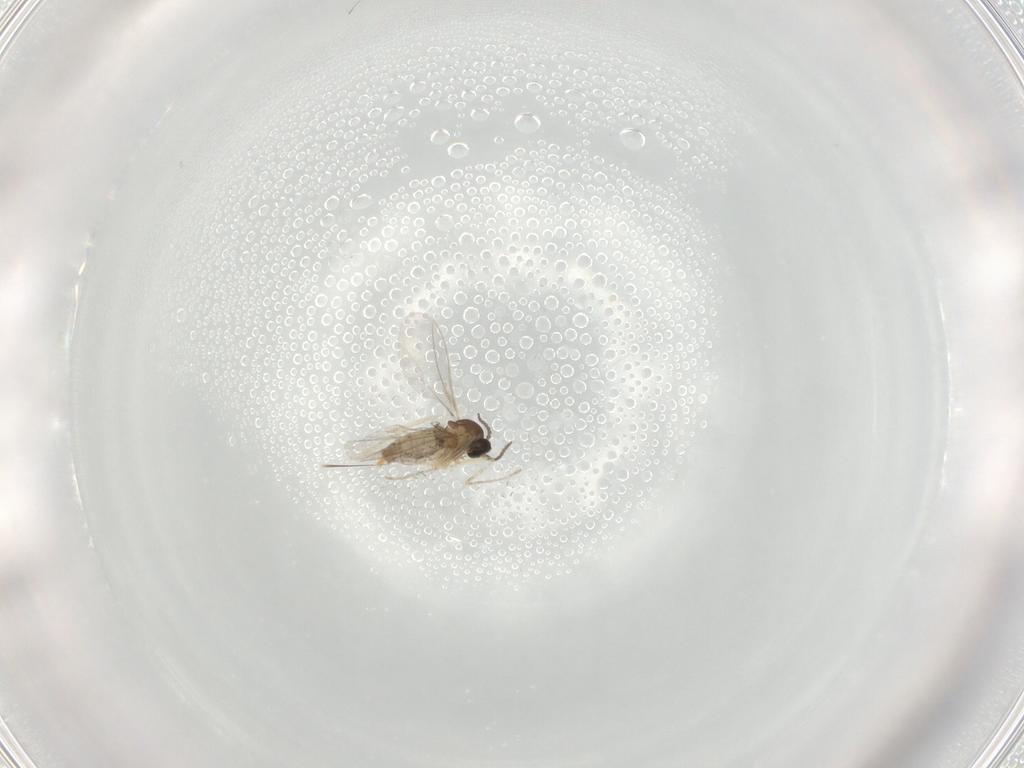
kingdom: Animalia
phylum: Arthropoda
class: Insecta
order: Diptera
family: Cecidomyiidae
